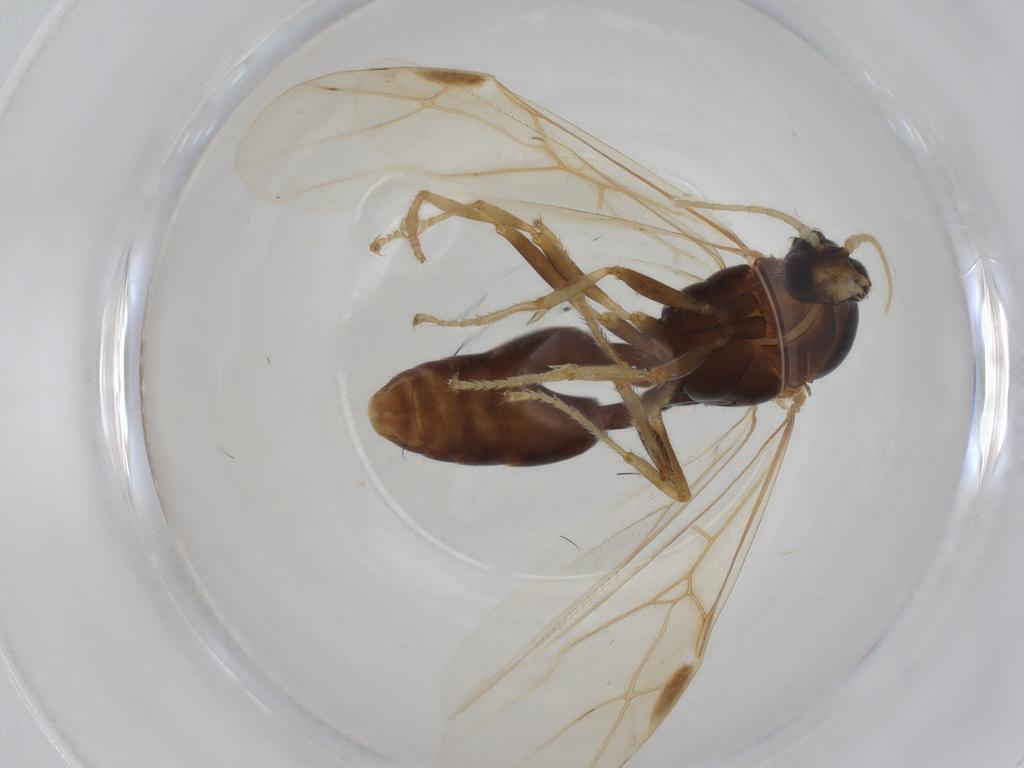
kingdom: Animalia
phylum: Arthropoda
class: Insecta
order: Hymenoptera
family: Formicidae
